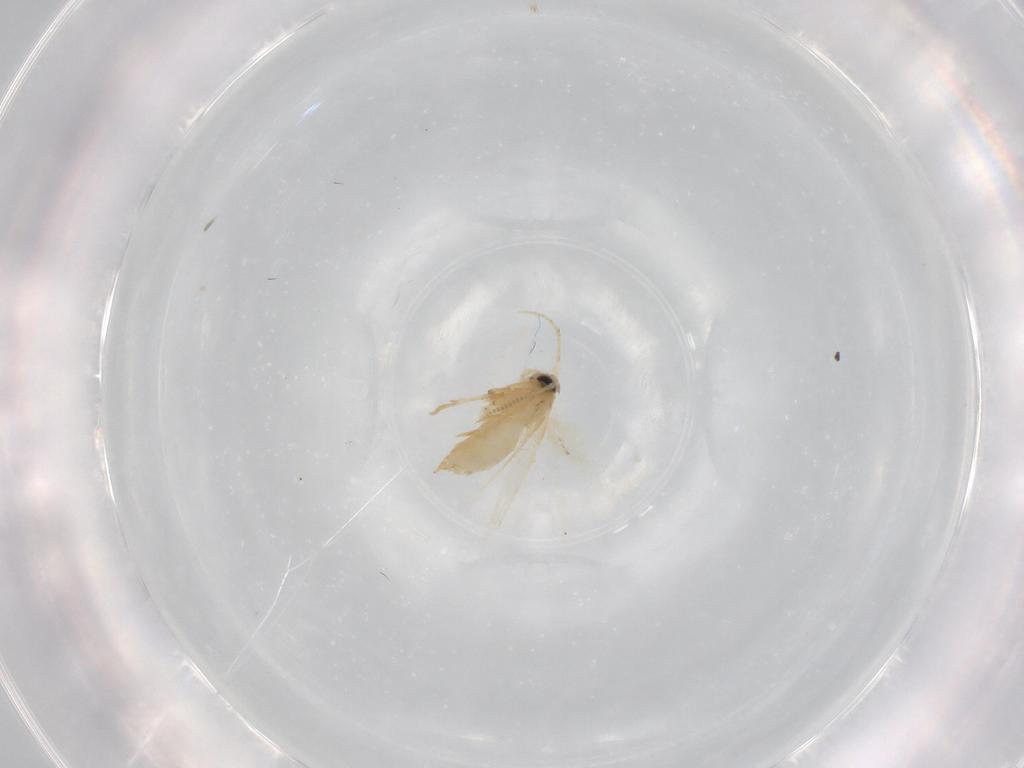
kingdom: Animalia
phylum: Arthropoda
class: Insecta
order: Lepidoptera
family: Nepticulidae
